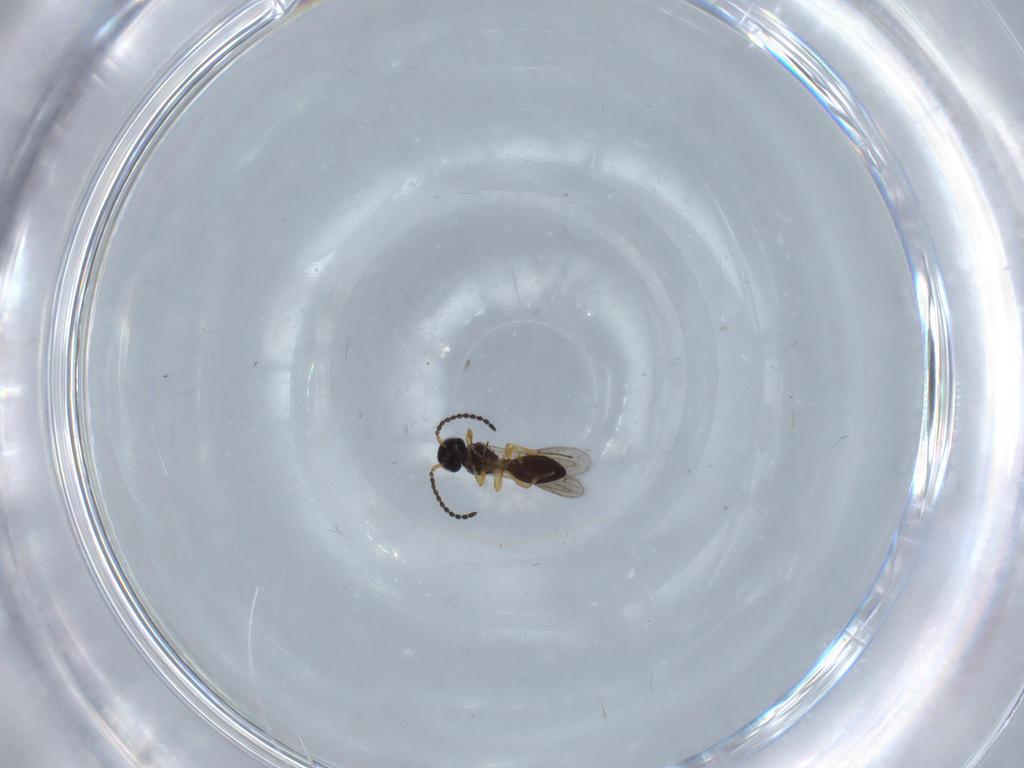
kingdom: Animalia
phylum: Arthropoda
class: Insecta
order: Hymenoptera
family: Scelionidae
